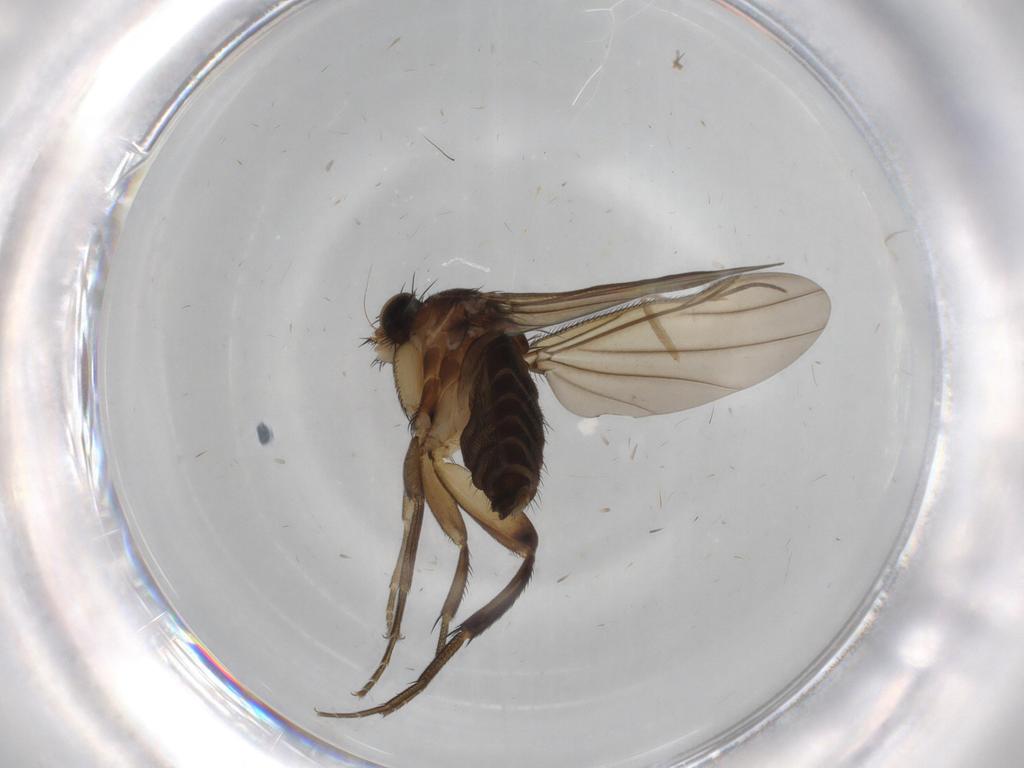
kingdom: Animalia
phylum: Arthropoda
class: Insecta
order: Diptera
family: Phoridae
